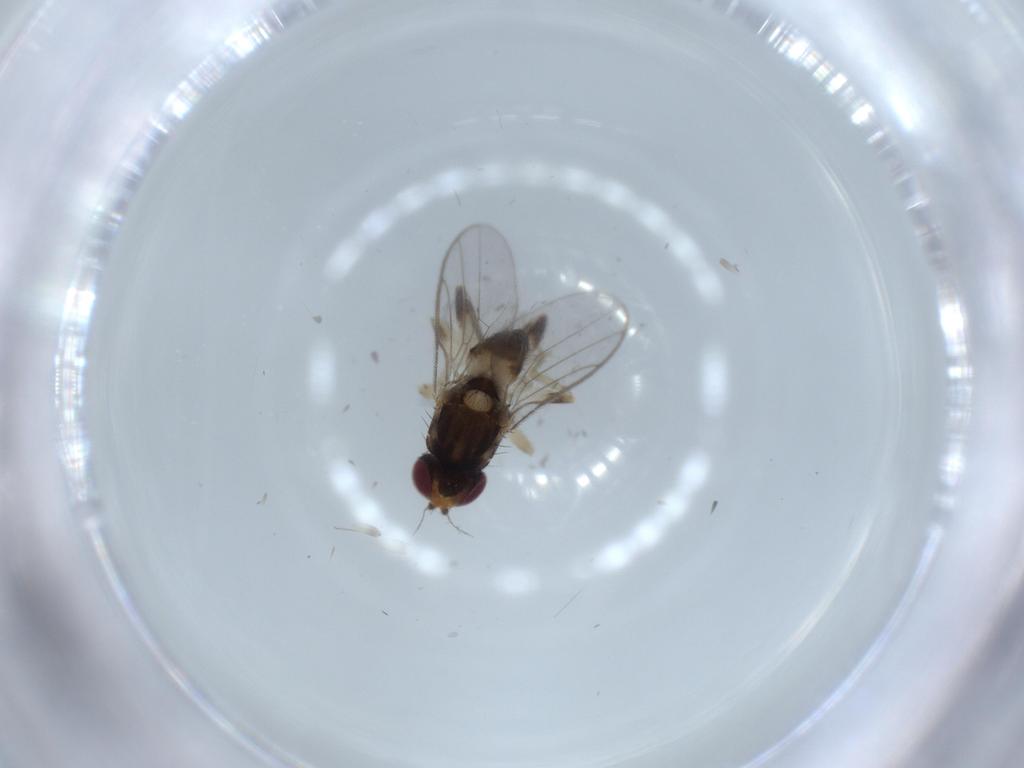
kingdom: Animalia
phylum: Arthropoda
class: Insecta
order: Diptera
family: Chloropidae
